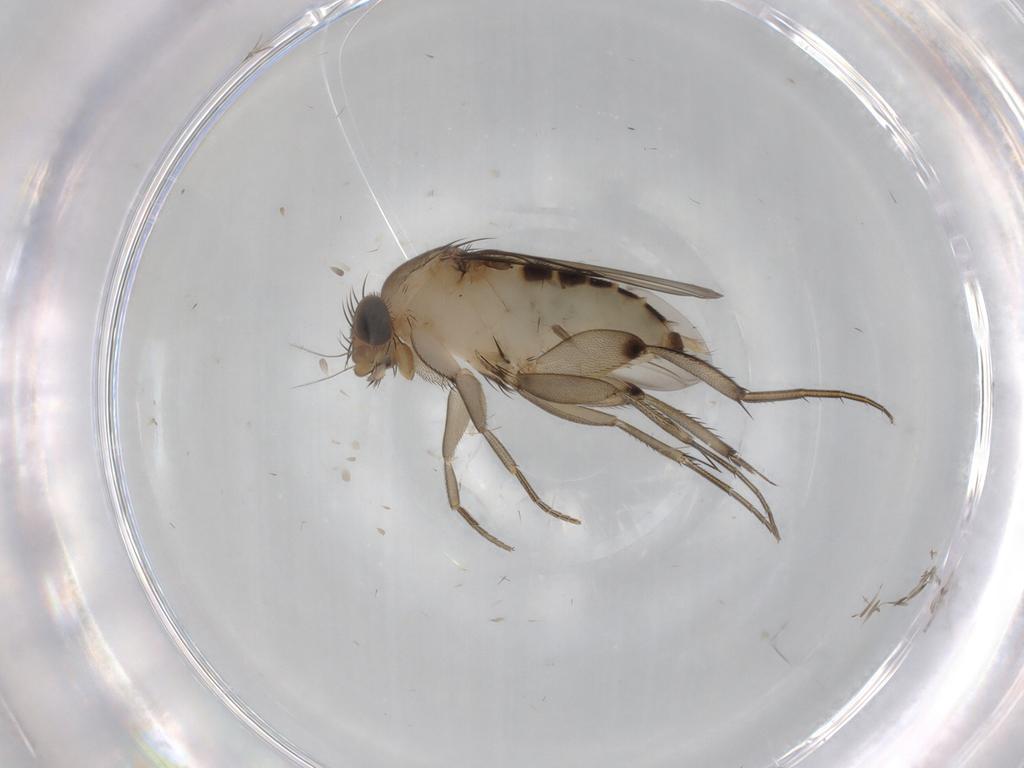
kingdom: Animalia
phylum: Arthropoda
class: Insecta
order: Diptera
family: Phoridae
